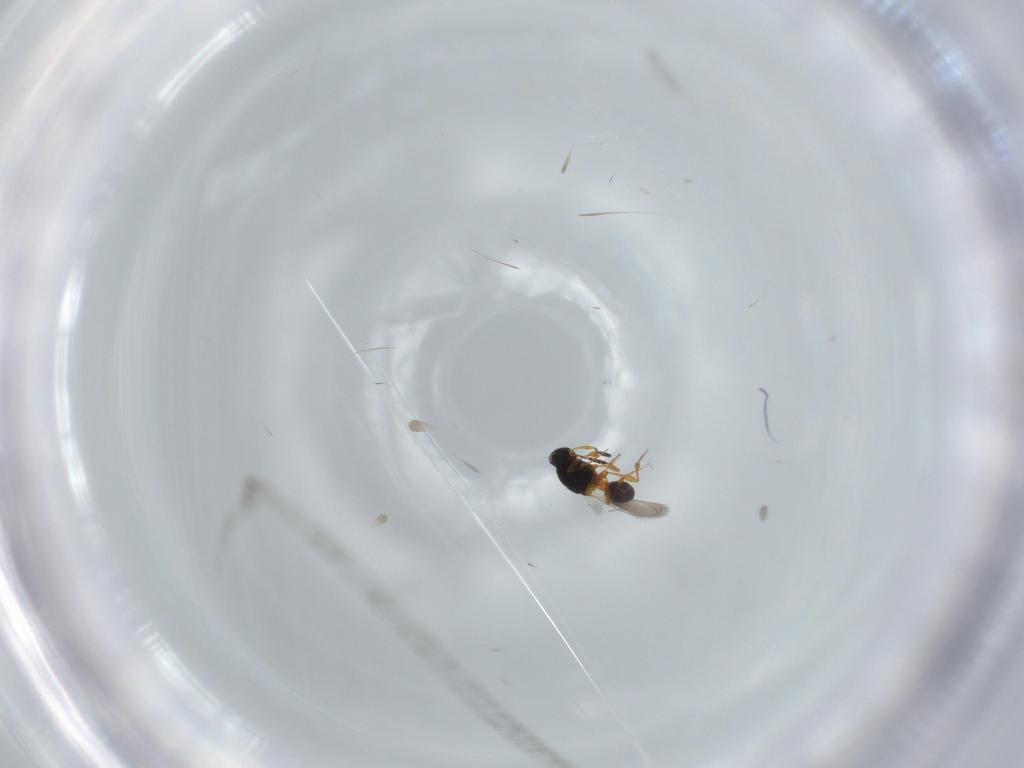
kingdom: Animalia
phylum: Arthropoda
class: Insecta
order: Hymenoptera
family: Platygastridae
